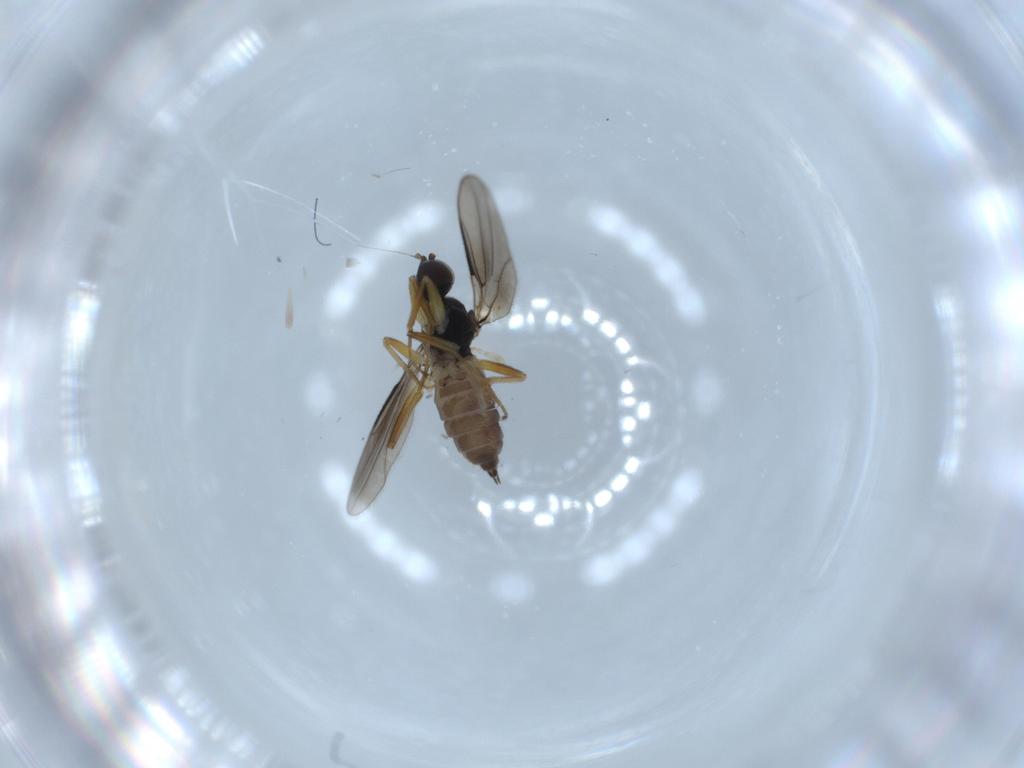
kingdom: Animalia
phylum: Arthropoda
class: Insecta
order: Diptera
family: Hybotidae
